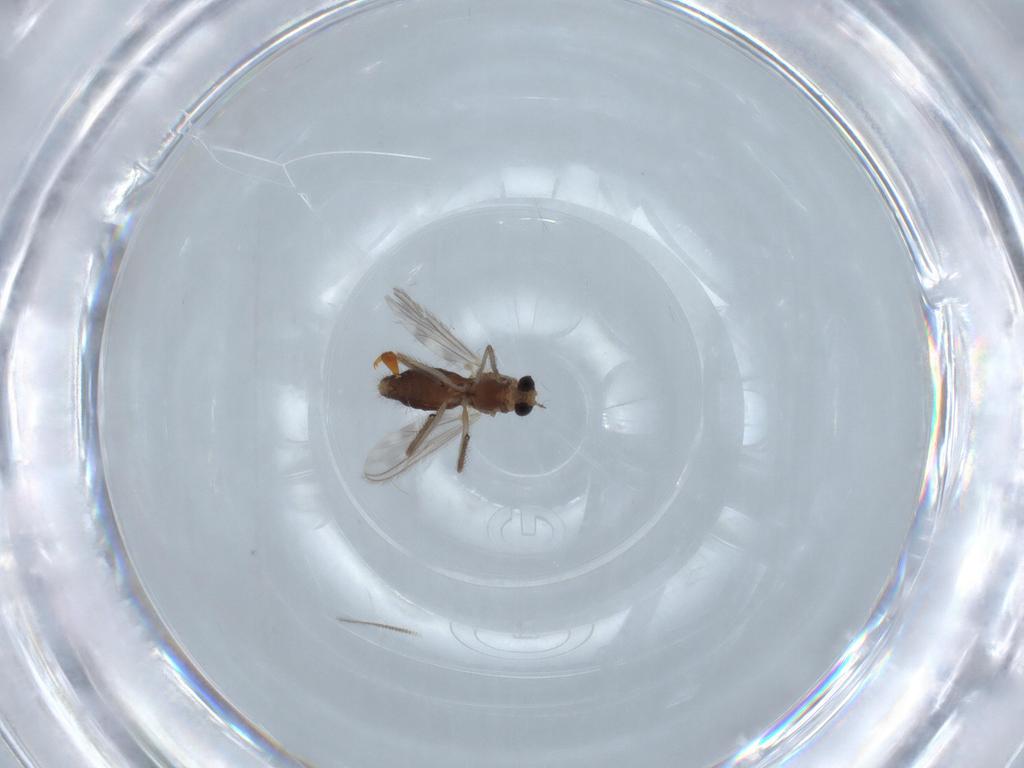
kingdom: Animalia
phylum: Arthropoda
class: Insecta
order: Diptera
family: Chironomidae
